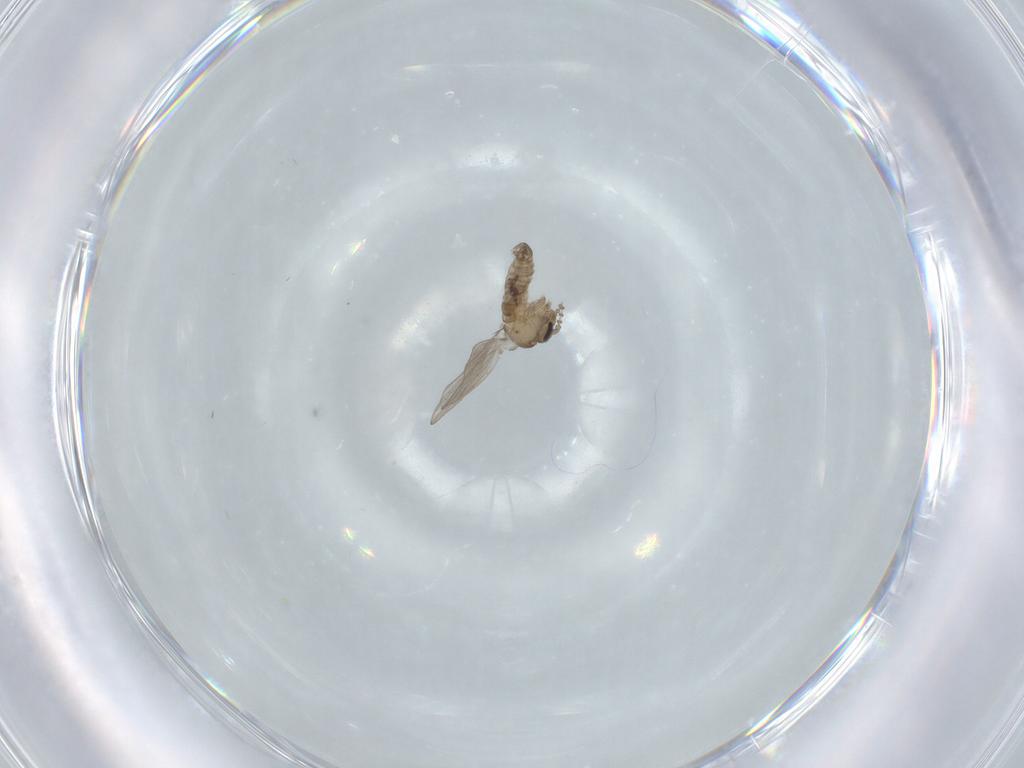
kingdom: Animalia
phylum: Arthropoda
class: Insecta
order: Diptera
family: Psychodidae
